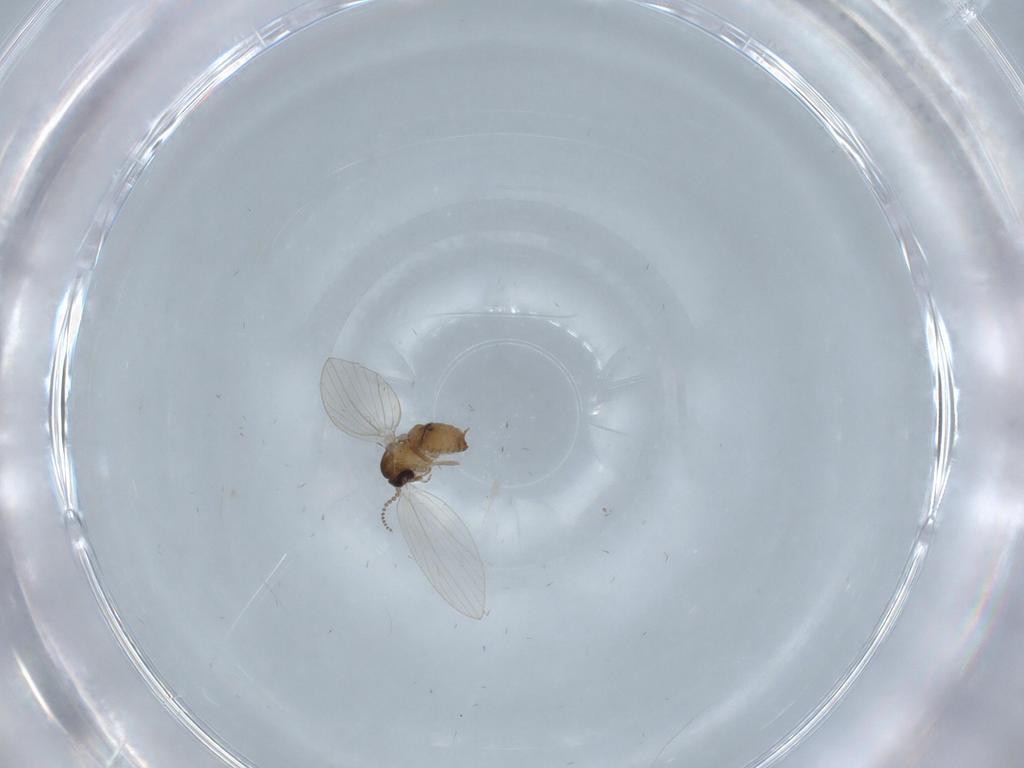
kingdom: Animalia
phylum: Arthropoda
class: Insecta
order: Diptera
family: Psychodidae
